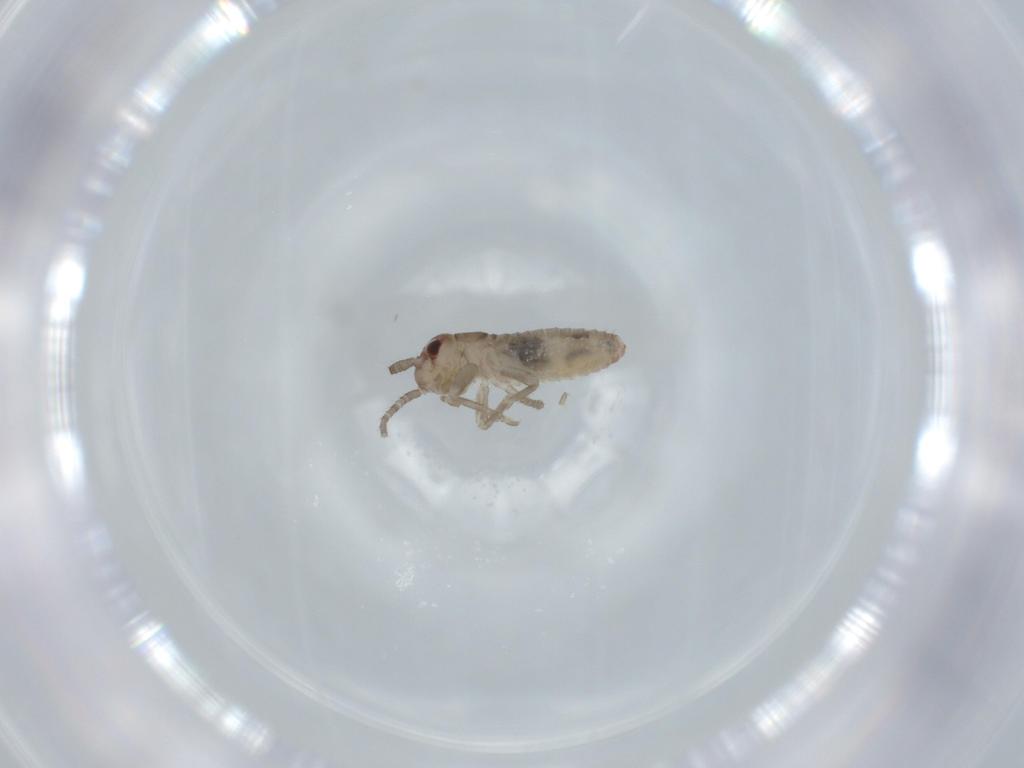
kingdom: Animalia
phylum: Arthropoda
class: Insecta
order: Orthoptera
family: Gryllidae
